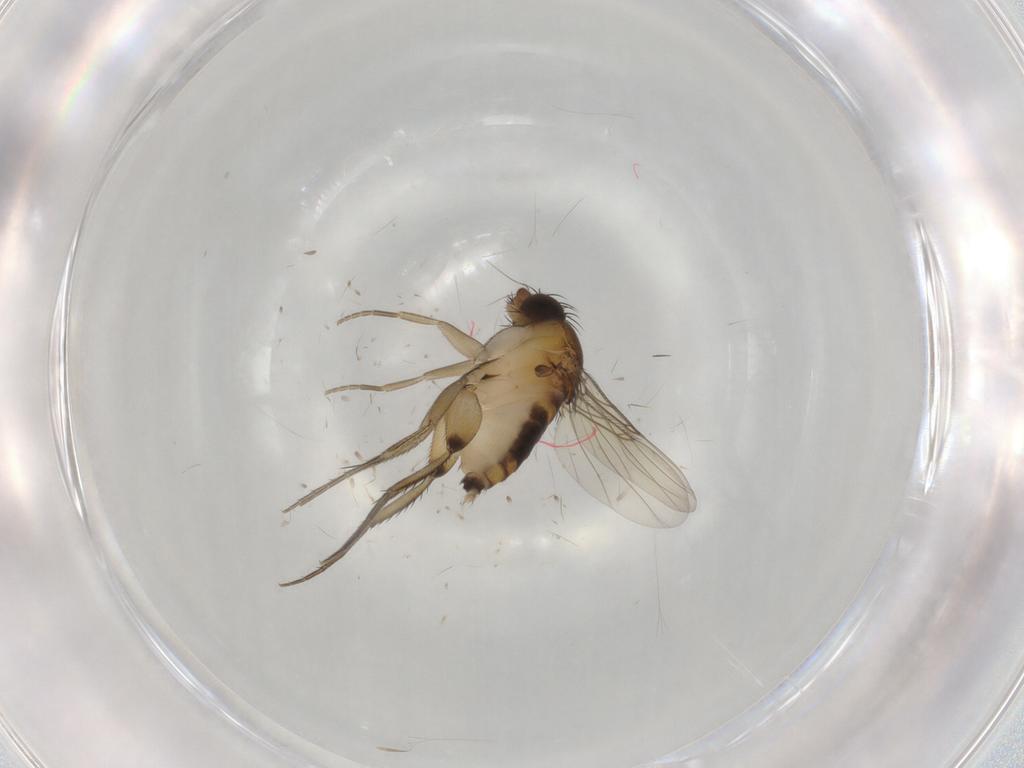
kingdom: Animalia
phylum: Arthropoda
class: Insecta
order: Diptera
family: Phoridae
